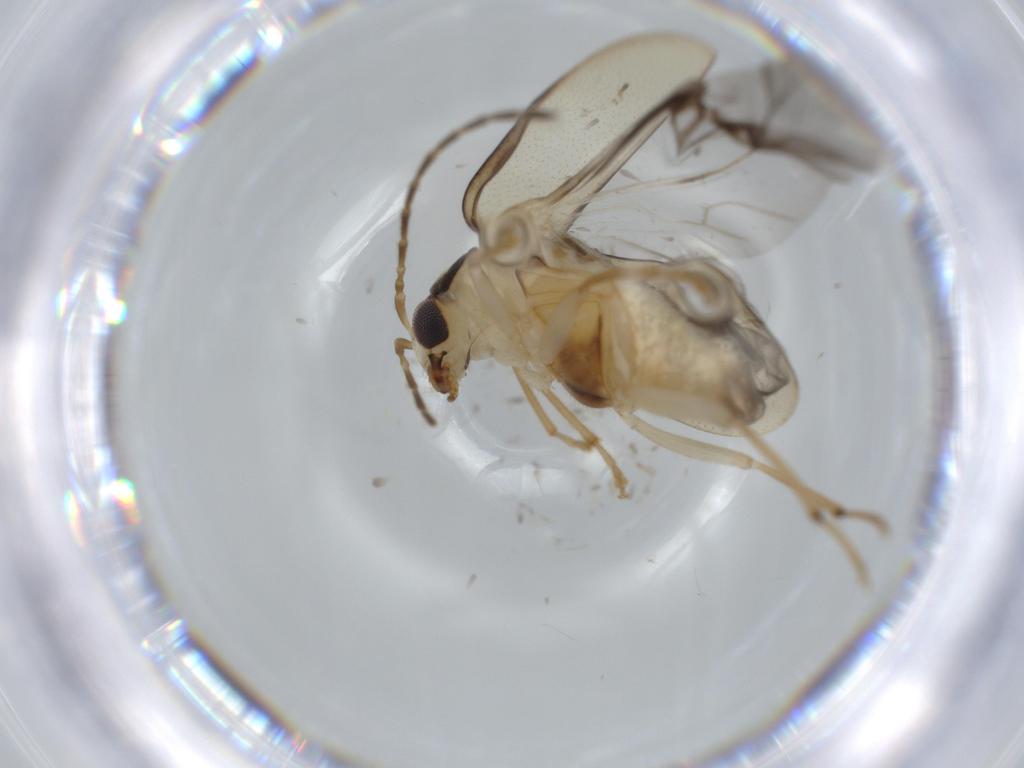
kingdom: Animalia
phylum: Arthropoda
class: Insecta
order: Coleoptera
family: Chrysomelidae
